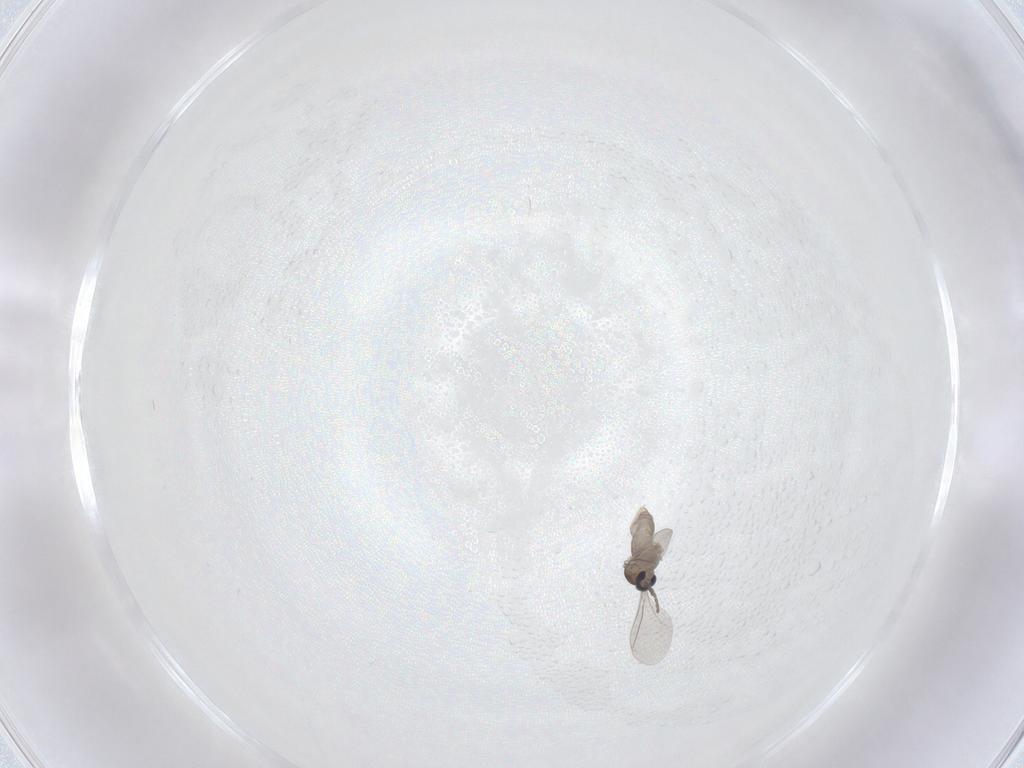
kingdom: Animalia
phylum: Arthropoda
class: Insecta
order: Diptera
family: Cecidomyiidae
